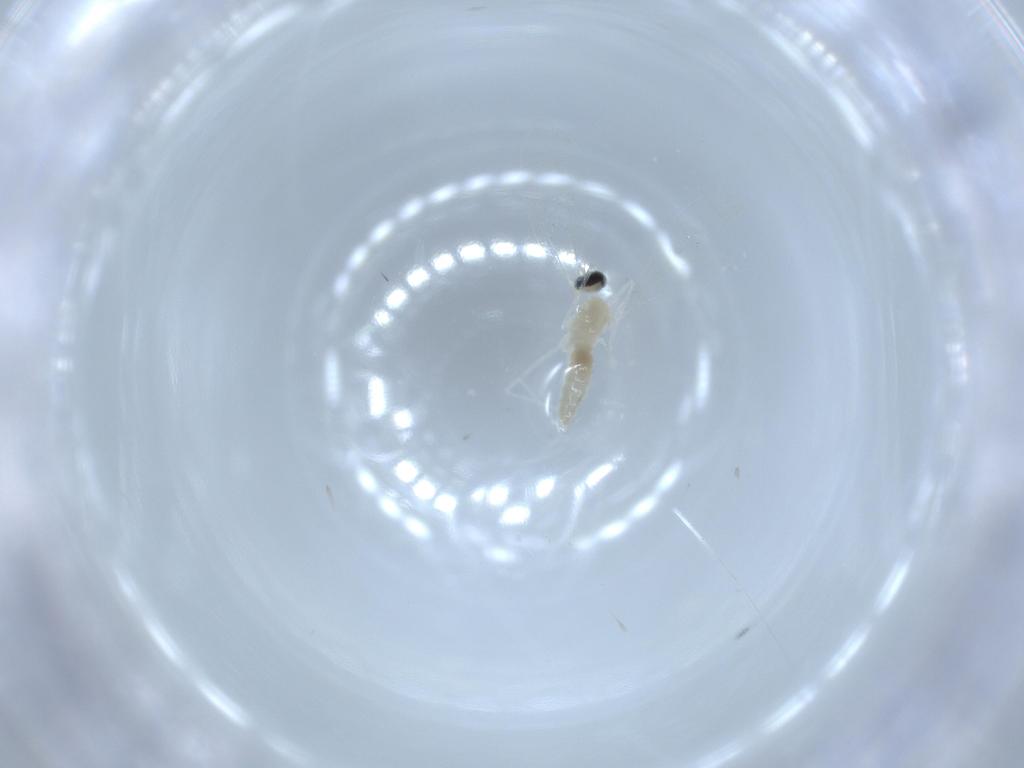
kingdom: Animalia
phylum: Arthropoda
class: Insecta
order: Diptera
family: Cecidomyiidae
